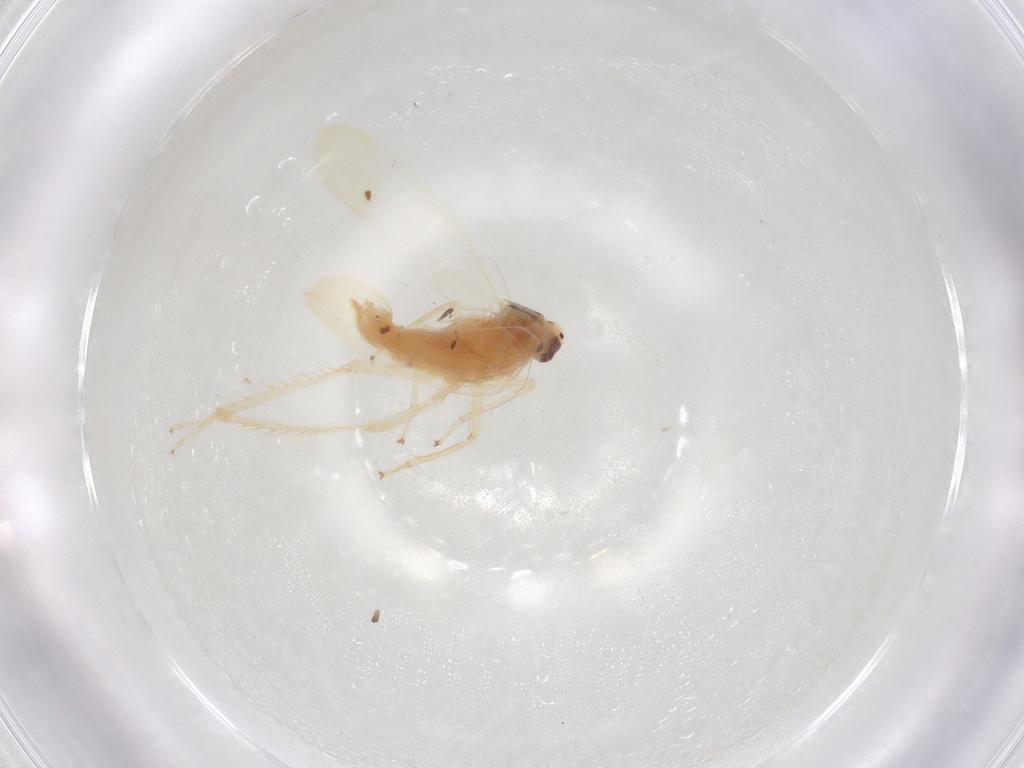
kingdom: Animalia
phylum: Arthropoda
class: Insecta
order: Hemiptera
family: Cicadellidae
